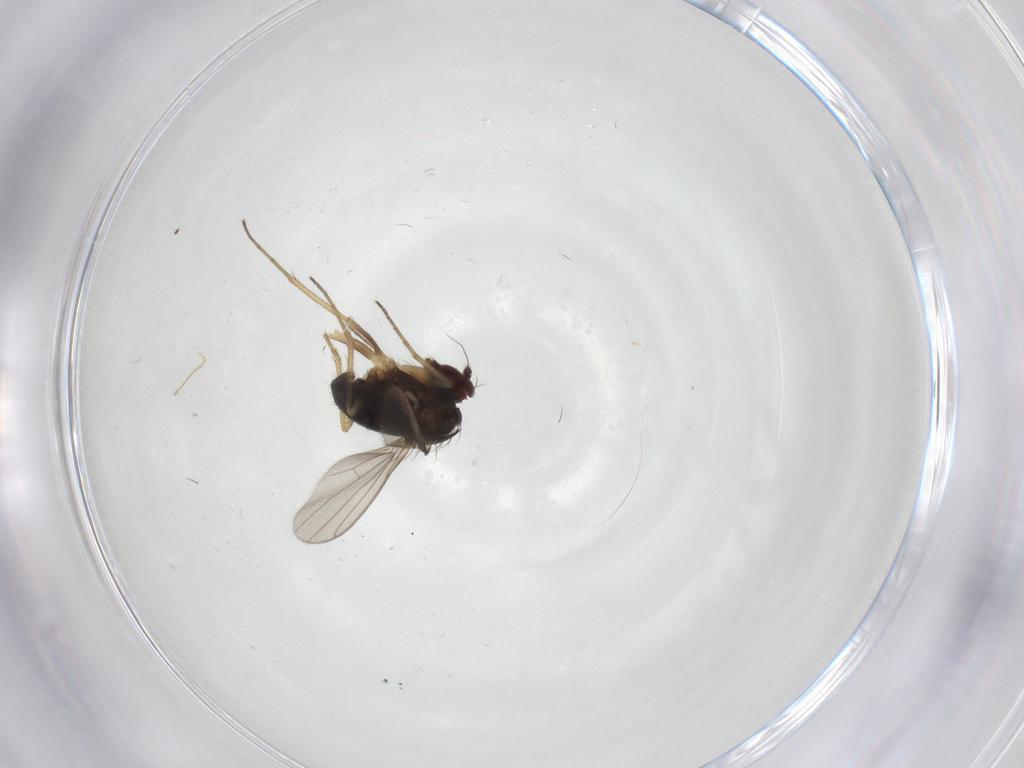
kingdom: Animalia
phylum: Arthropoda
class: Insecta
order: Diptera
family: Dolichopodidae
